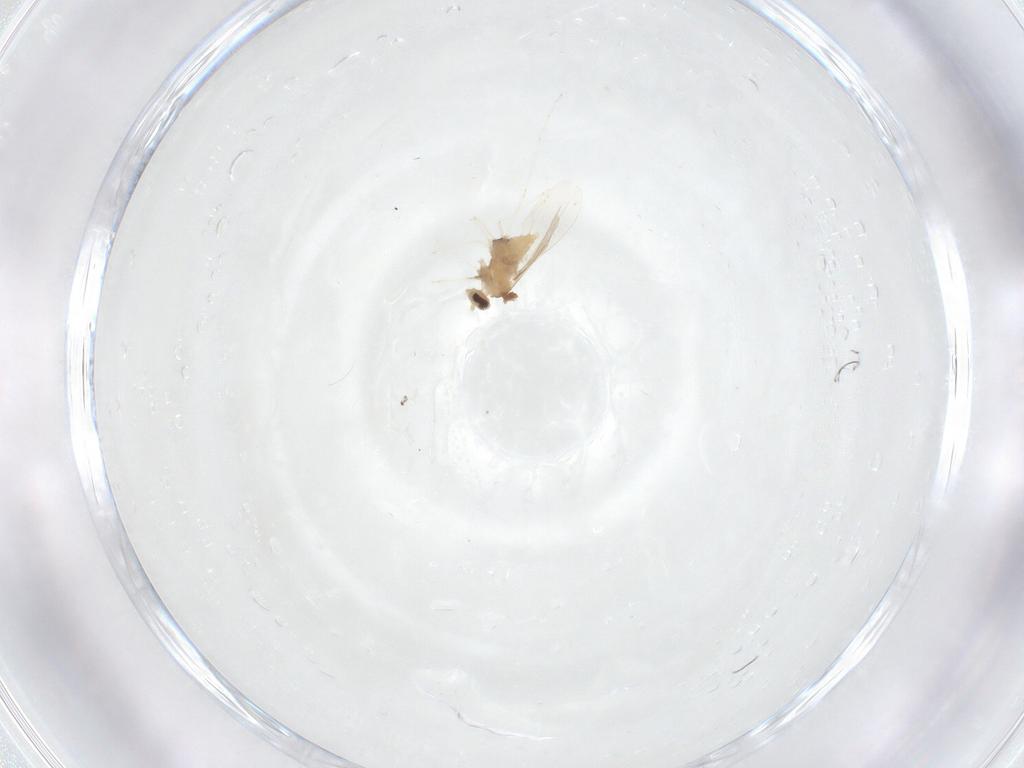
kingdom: Animalia
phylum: Arthropoda
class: Insecta
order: Diptera
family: Cecidomyiidae
